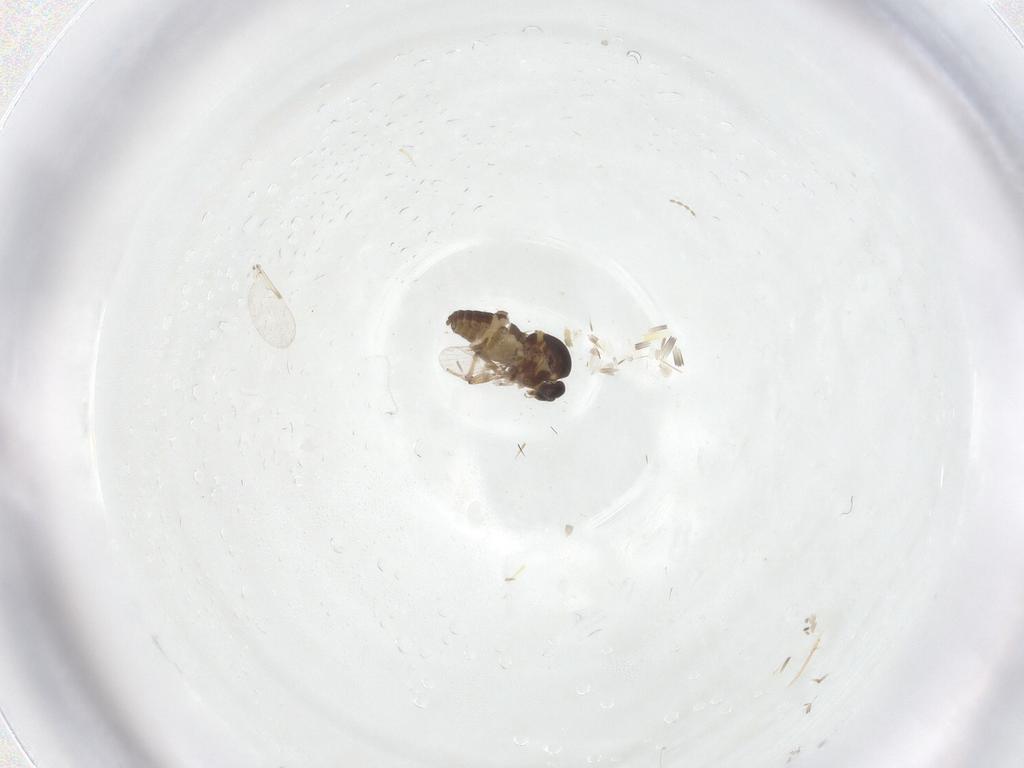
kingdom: Animalia
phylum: Arthropoda
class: Insecta
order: Diptera
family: Ceratopogonidae
